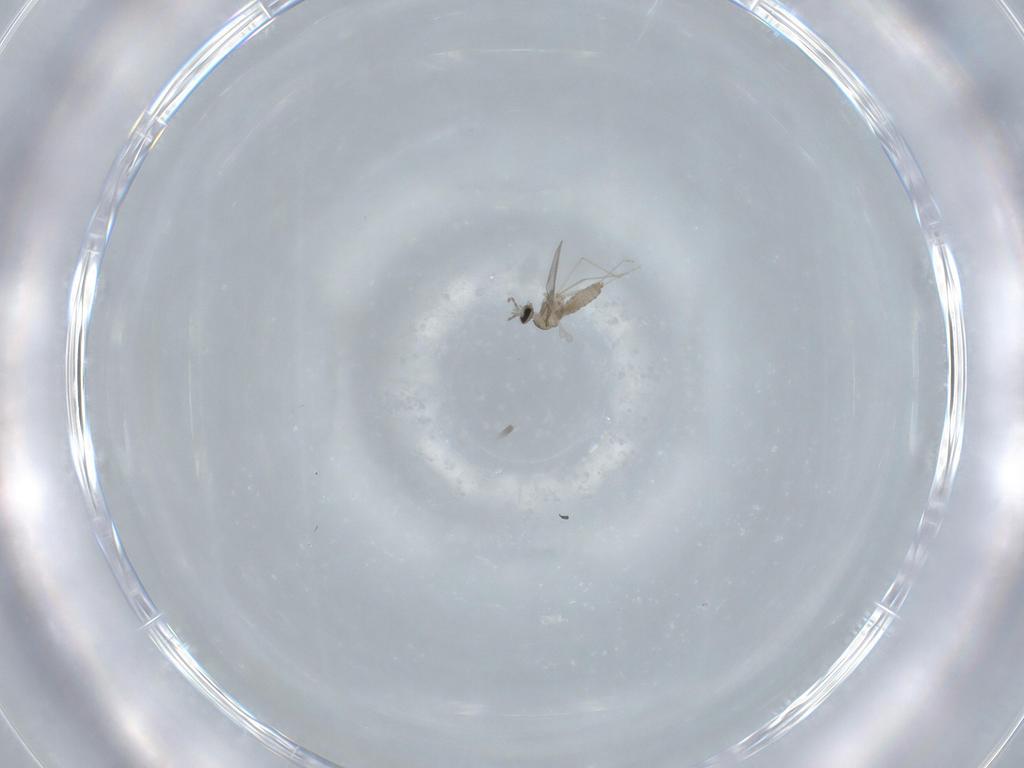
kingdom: Animalia
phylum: Arthropoda
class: Insecta
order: Diptera
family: Cecidomyiidae
